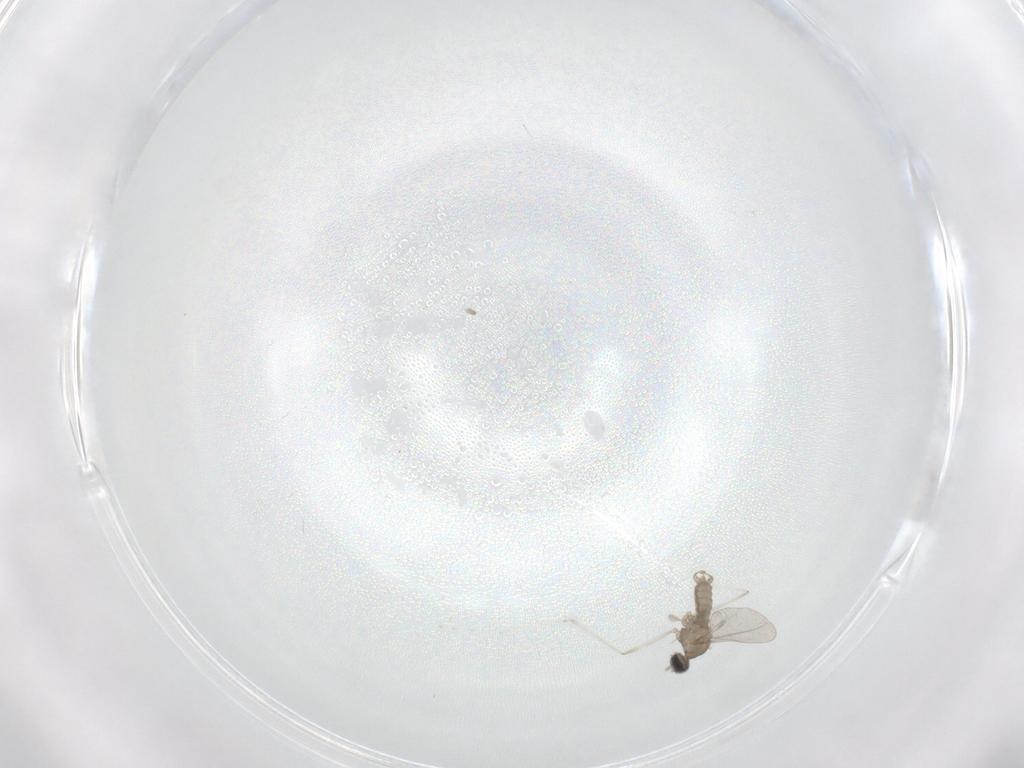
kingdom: Animalia
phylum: Arthropoda
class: Insecta
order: Diptera
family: Cecidomyiidae
